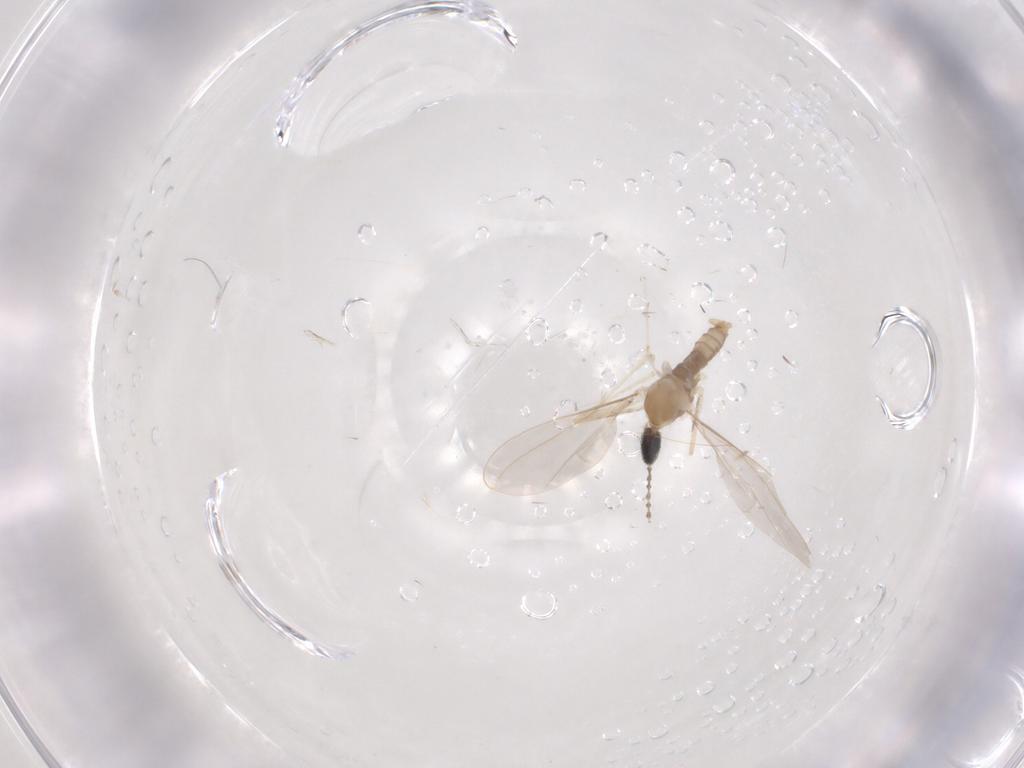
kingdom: Animalia
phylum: Arthropoda
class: Insecta
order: Diptera
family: Cecidomyiidae
